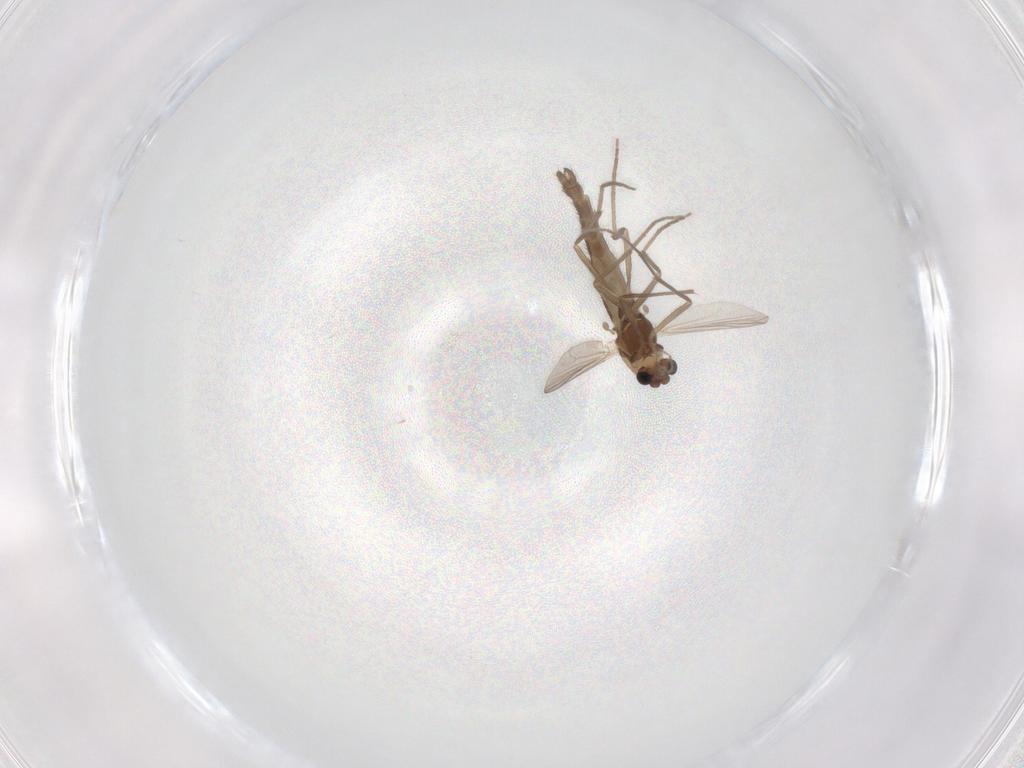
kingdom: Animalia
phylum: Arthropoda
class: Insecta
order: Diptera
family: Chironomidae
